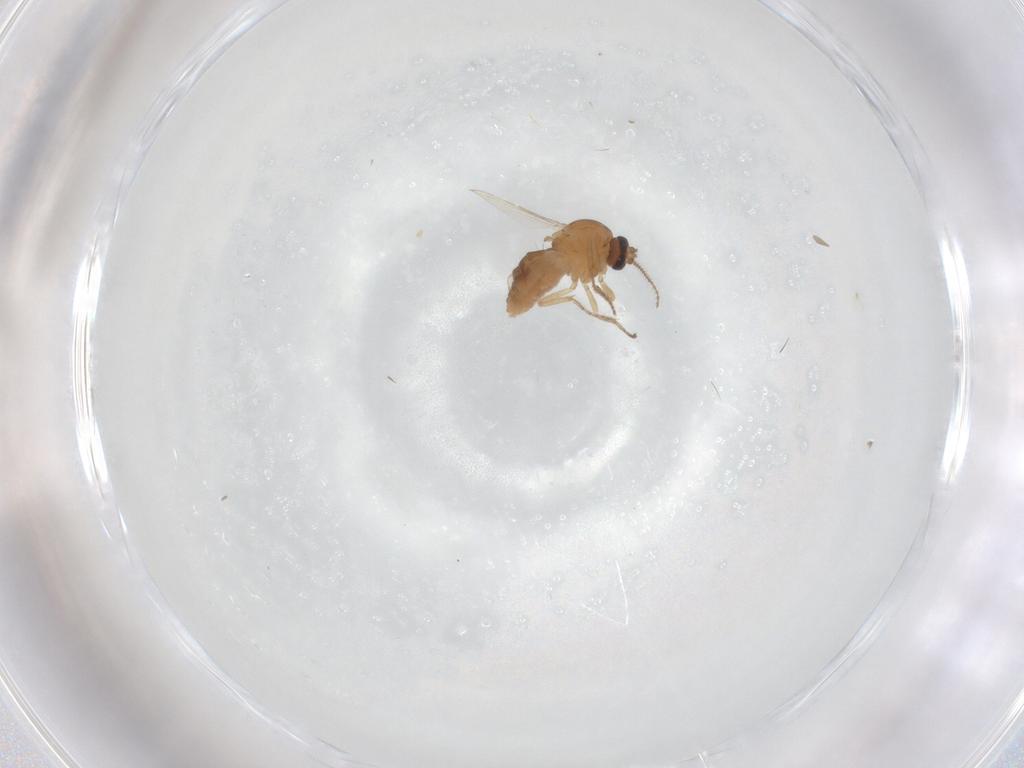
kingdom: Animalia
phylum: Arthropoda
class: Insecta
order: Diptera
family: Ceratopogonidae
